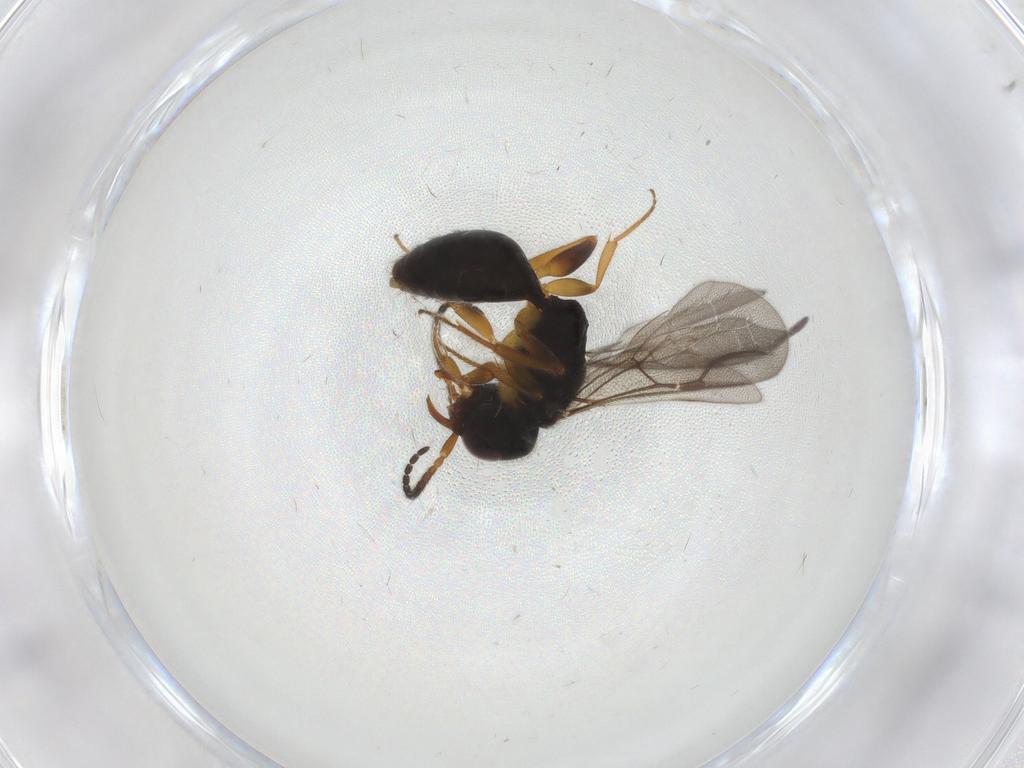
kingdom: Animalia
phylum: Arthropoda
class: Insecta
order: Hymenoptera
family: Bethylidae
